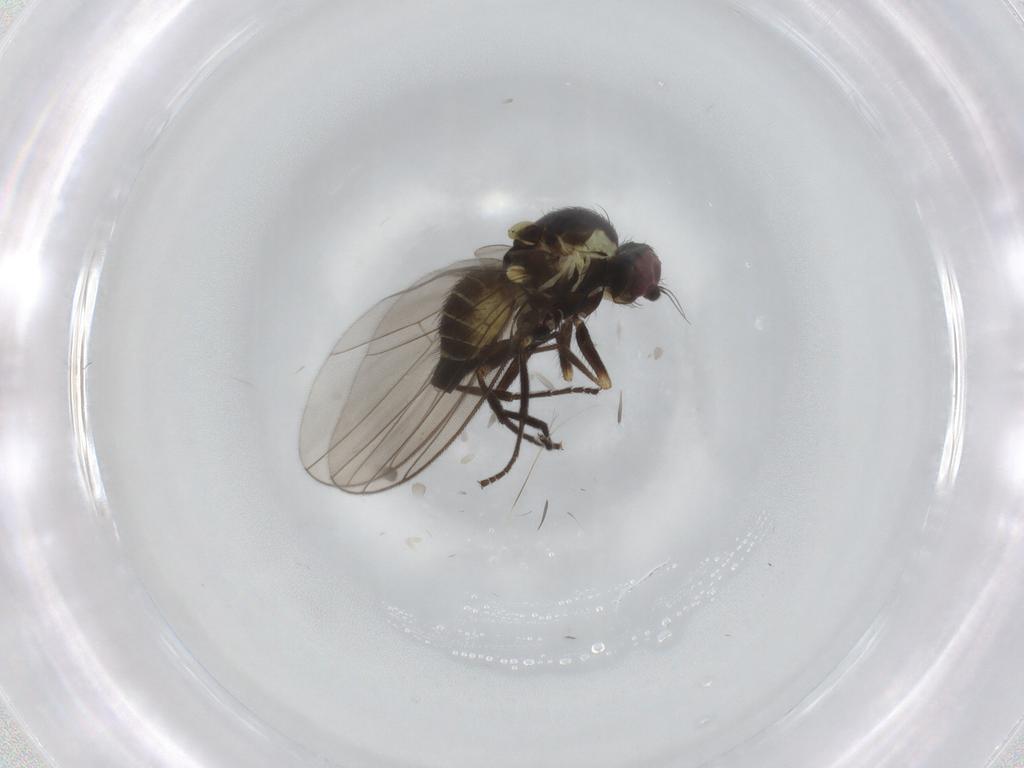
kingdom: Animalia
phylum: Arthropoda
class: Insecta
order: Diptera
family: Agromyzidae
